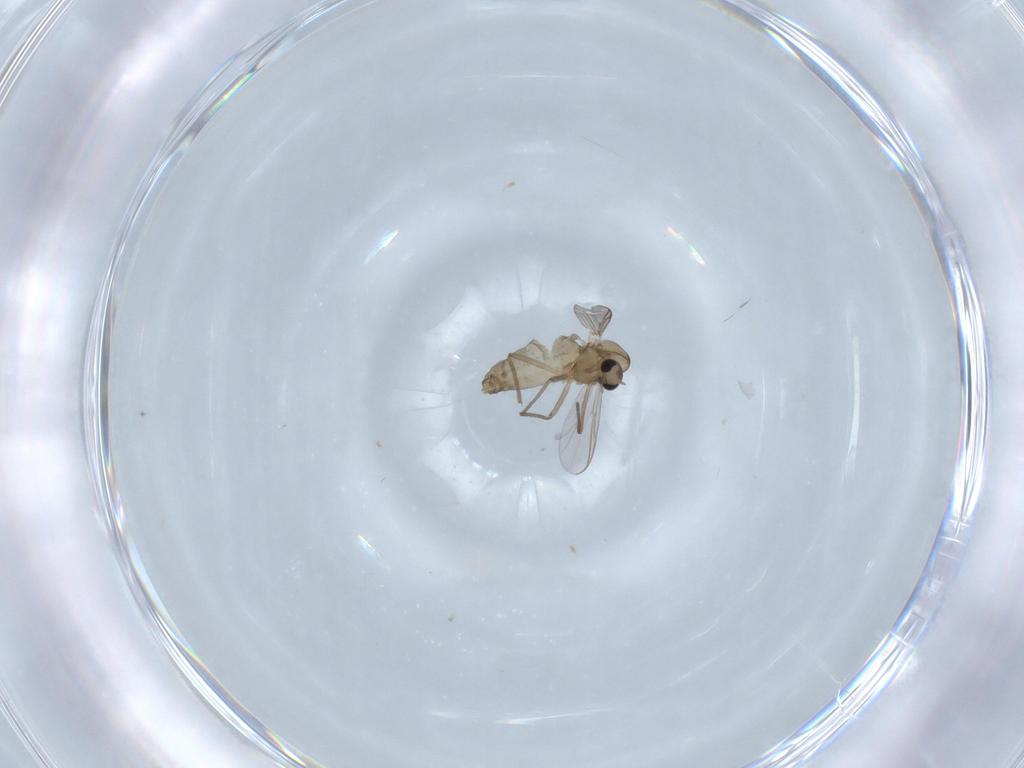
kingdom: Animalia
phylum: Arthropoda
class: Insecta
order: Diptera
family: Chironomidae
